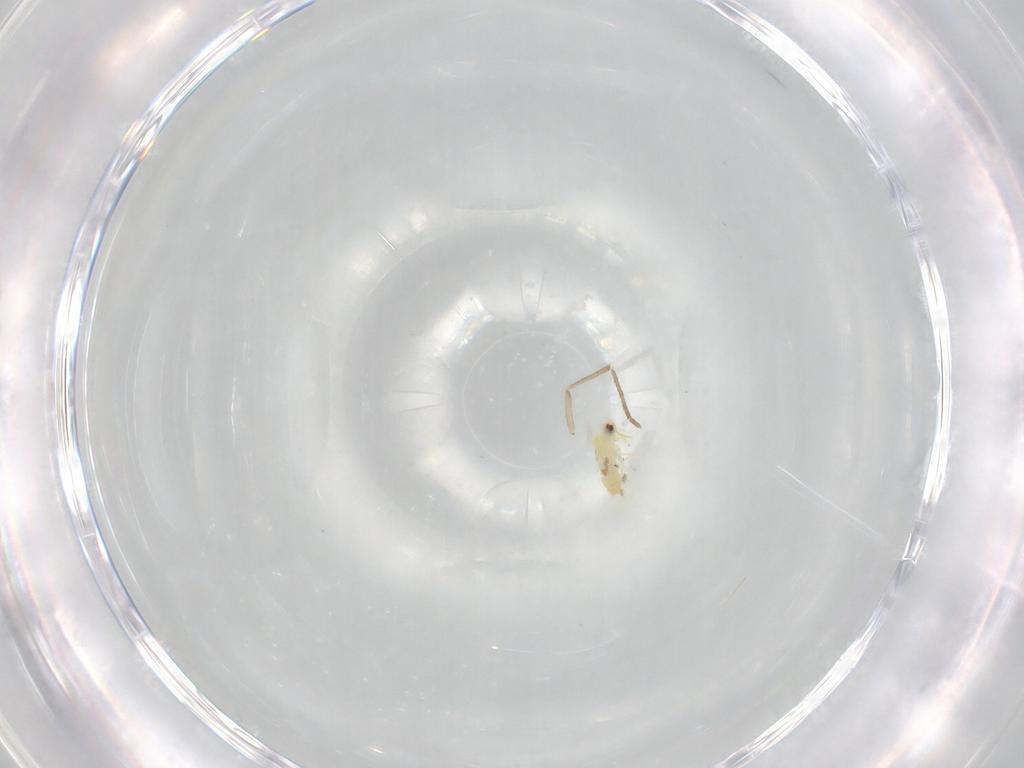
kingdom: Animalia
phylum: Arthropoda
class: Insecta
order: Hemiptera
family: Aleyrodidae
